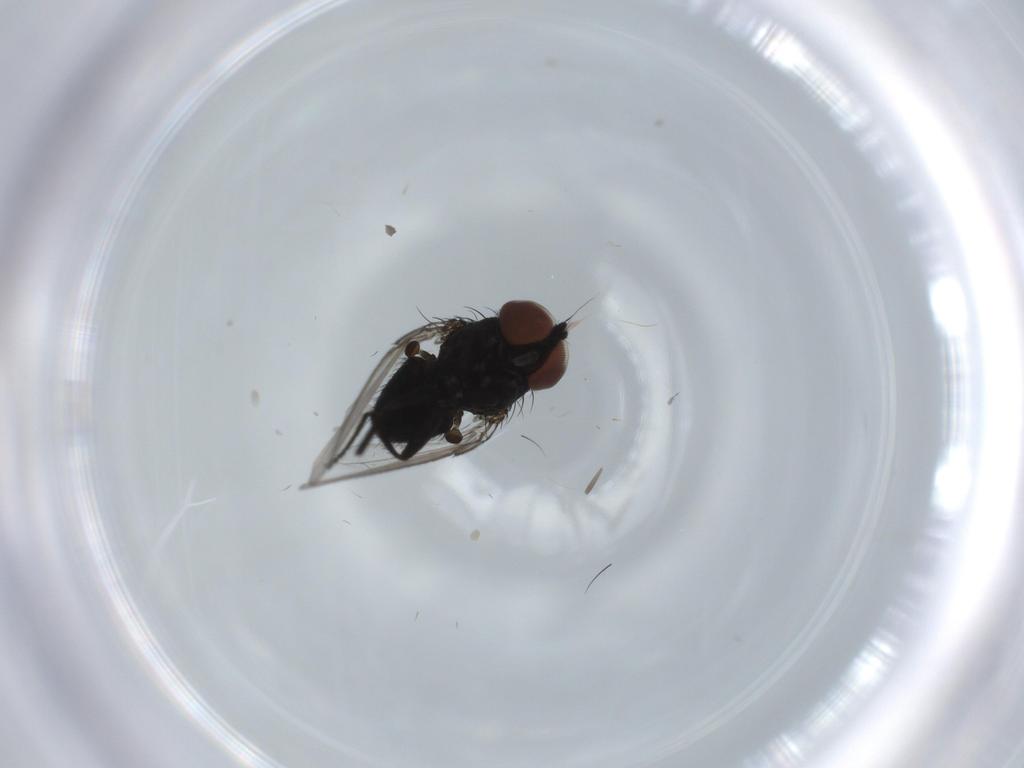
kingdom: Animalia
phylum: Arthropoda
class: Insecta
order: Diptera
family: Milichiidae
